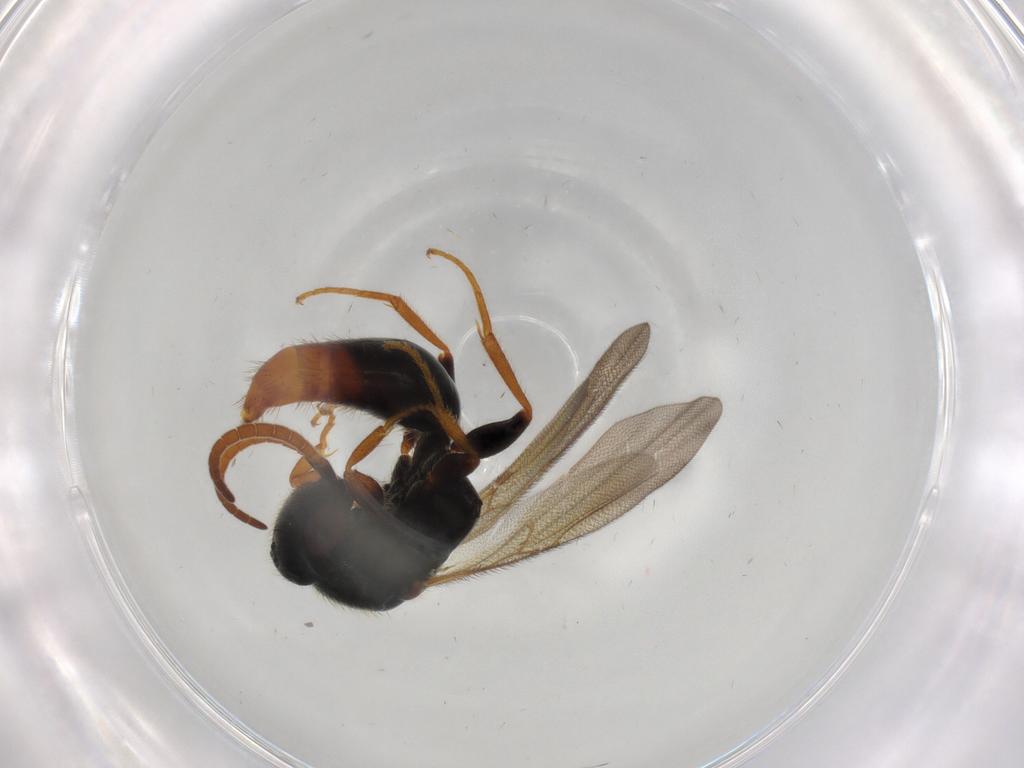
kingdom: Animalia
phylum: Arthropoda
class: Insecta
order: Hymenoptera
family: Bethylidae
